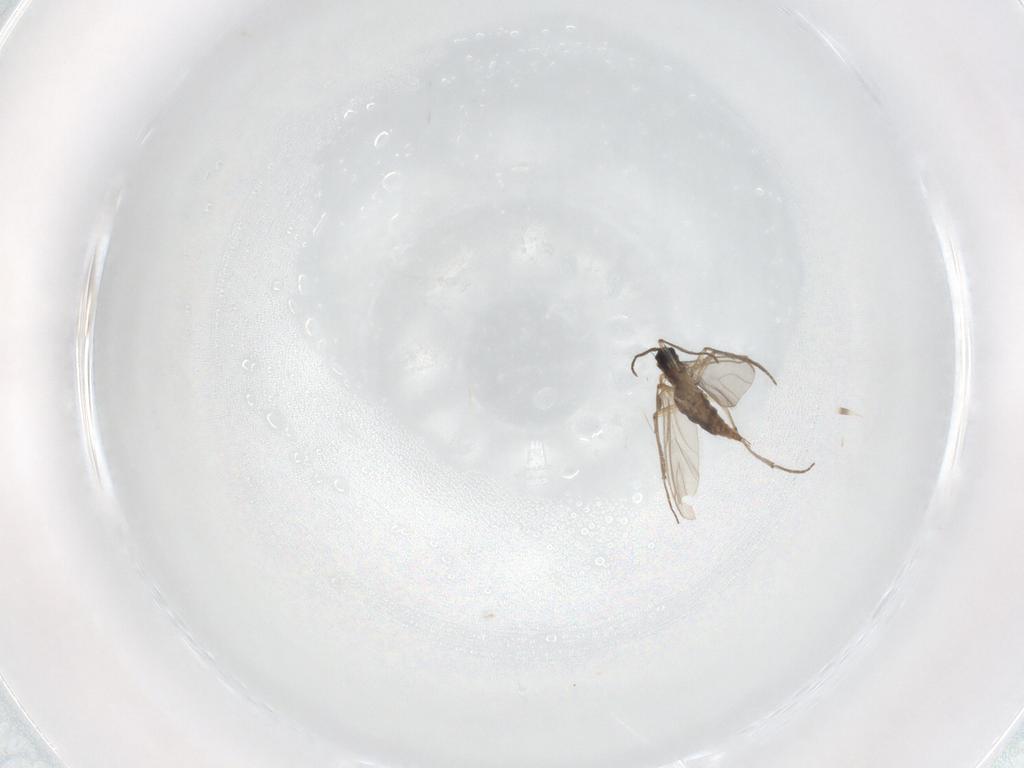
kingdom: Animalia
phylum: Arthropoda
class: Insecta
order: Diptera
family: Sciaridae
